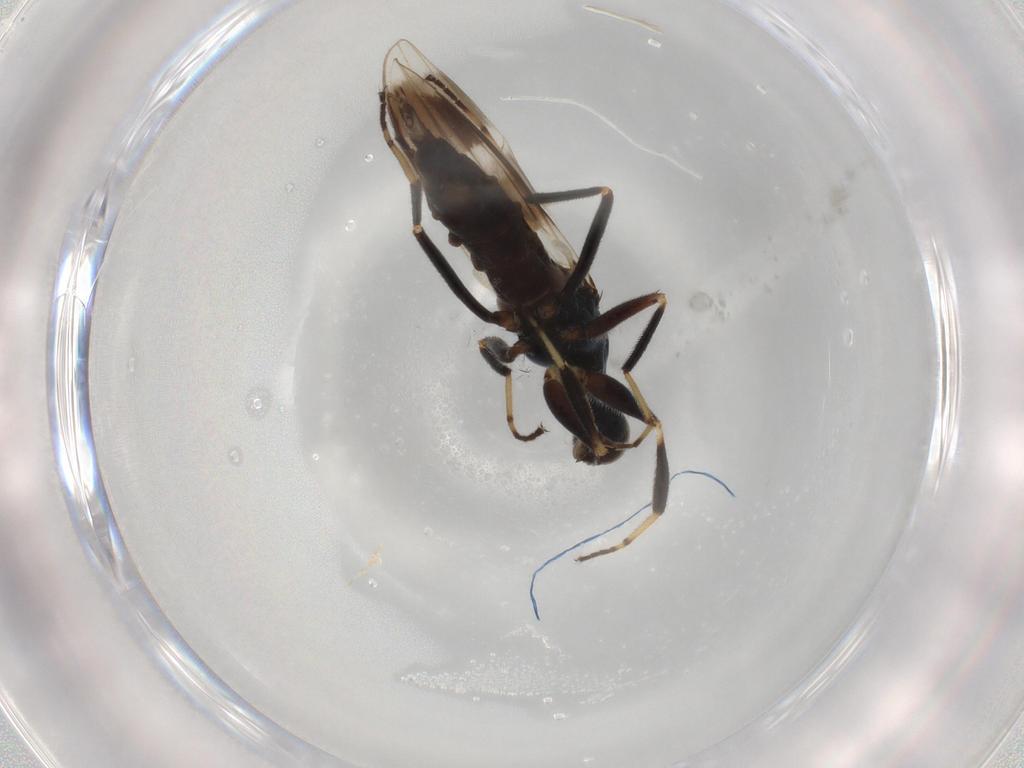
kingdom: Animalia
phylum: Arthropoda
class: Insecta
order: Diptera
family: Hybotidae
